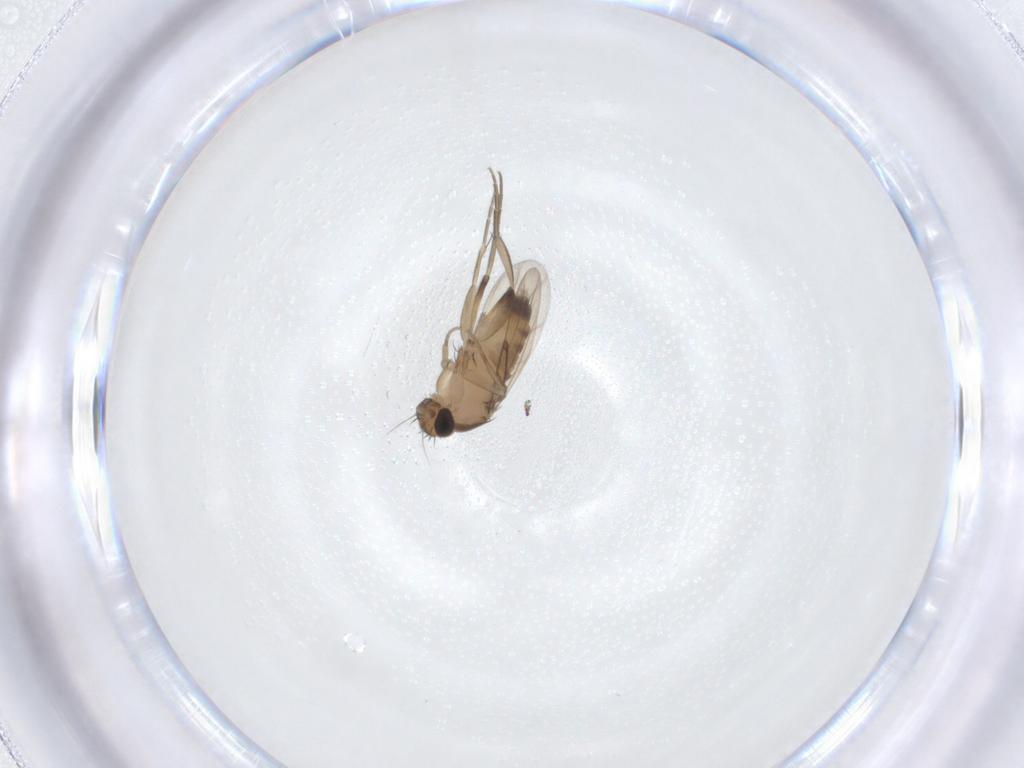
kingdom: Animalia
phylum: Arthropoda
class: Insecta
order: Diptera
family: Phoridae
